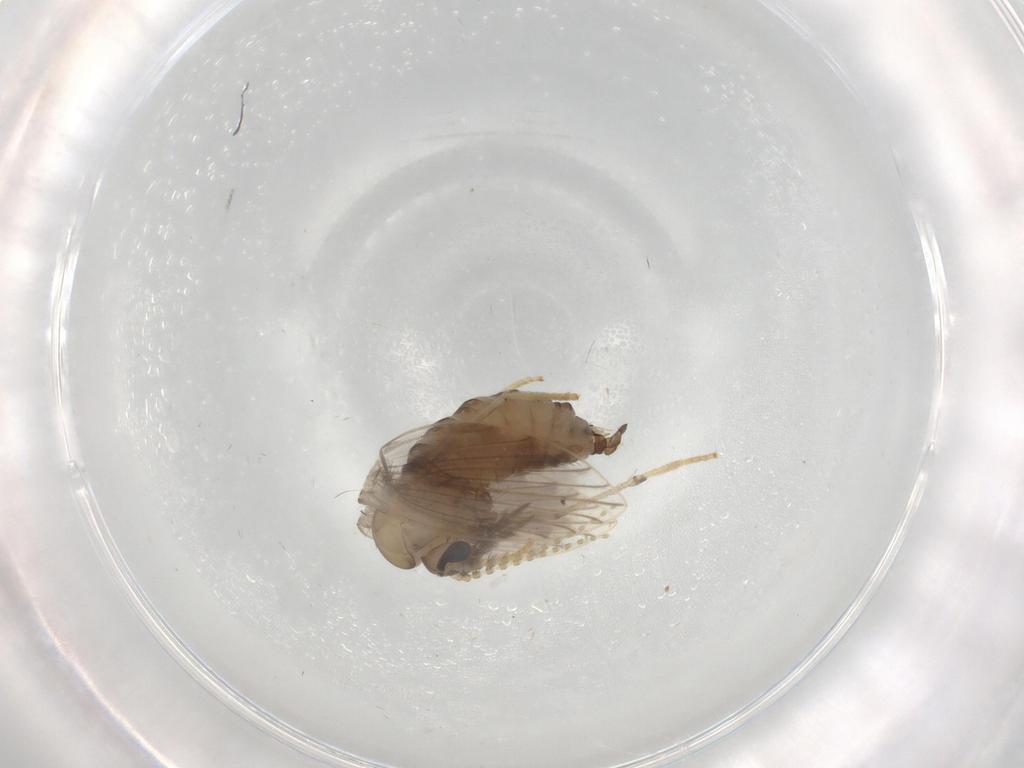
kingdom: Animalia
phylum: Arthropoda
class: Insecta
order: Diptera
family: Psychodidae
